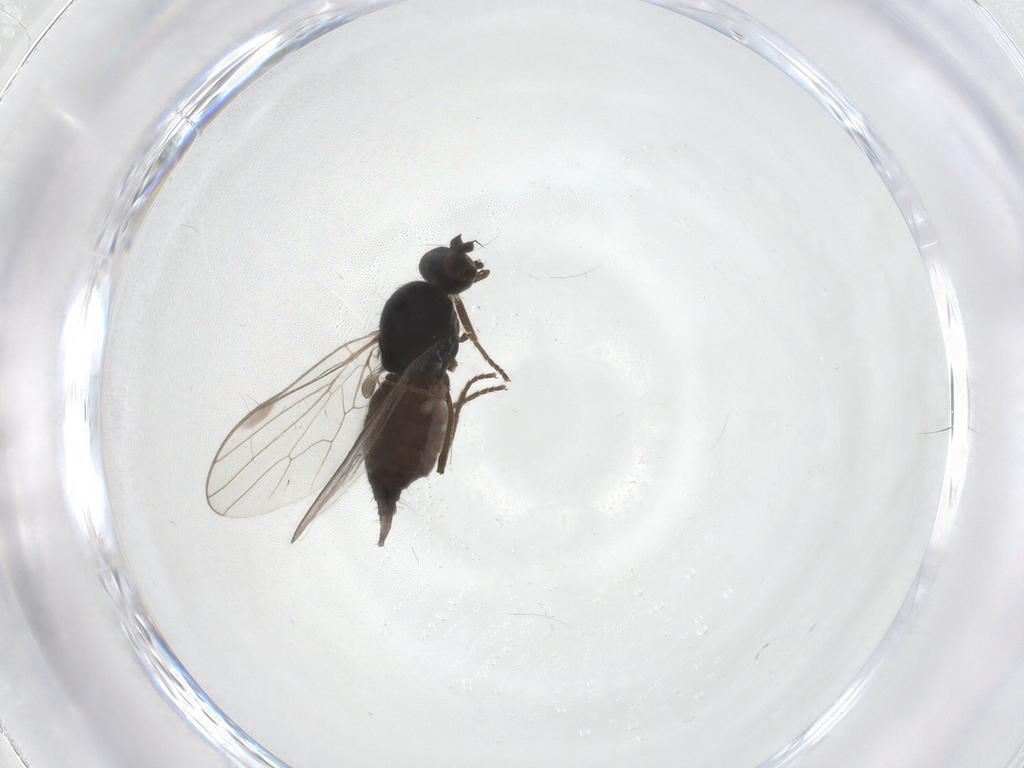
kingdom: Animalia
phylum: Arthropoda
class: Insecta
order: Diptera
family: Hybotidae
